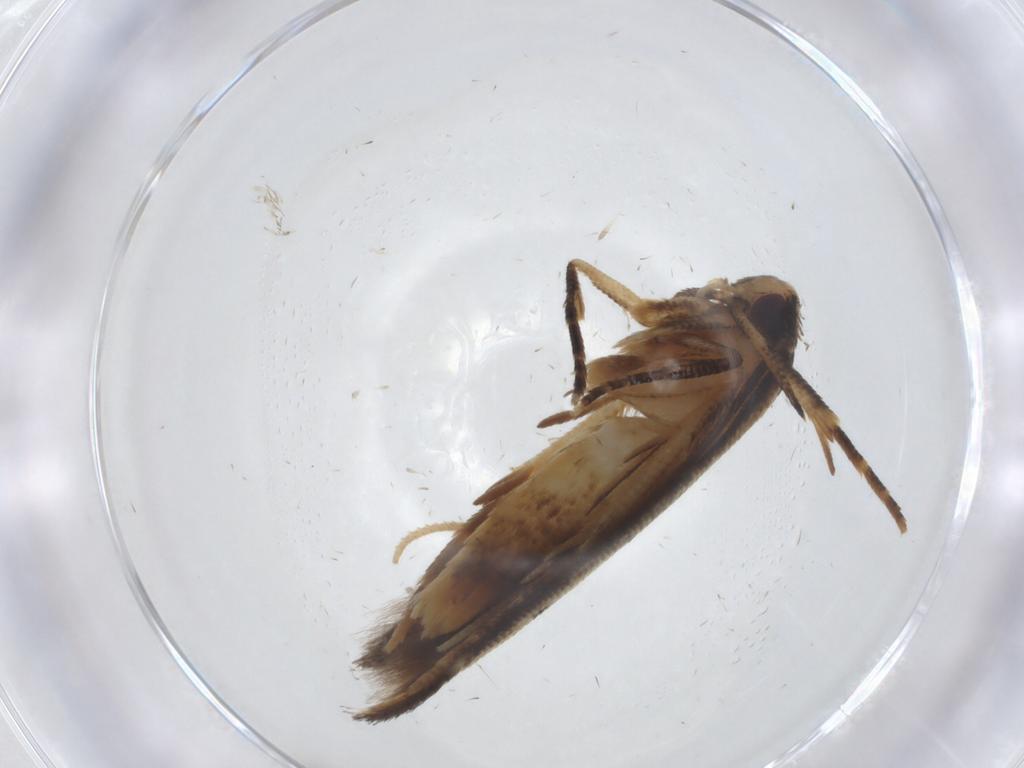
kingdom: Animalia
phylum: Arthropoda
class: Insecta
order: Lepidoptera
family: Cosmopterigidae
